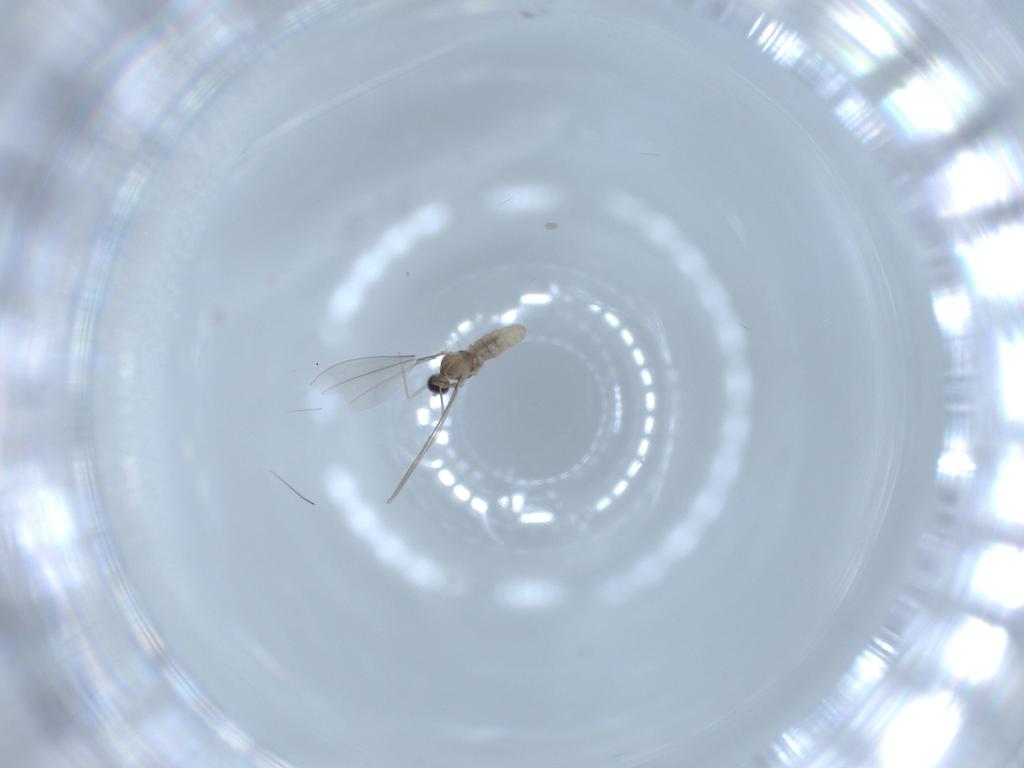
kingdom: Animalia
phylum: Arthropoda
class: Insecta
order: Diptera
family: Cecidomyiidae
